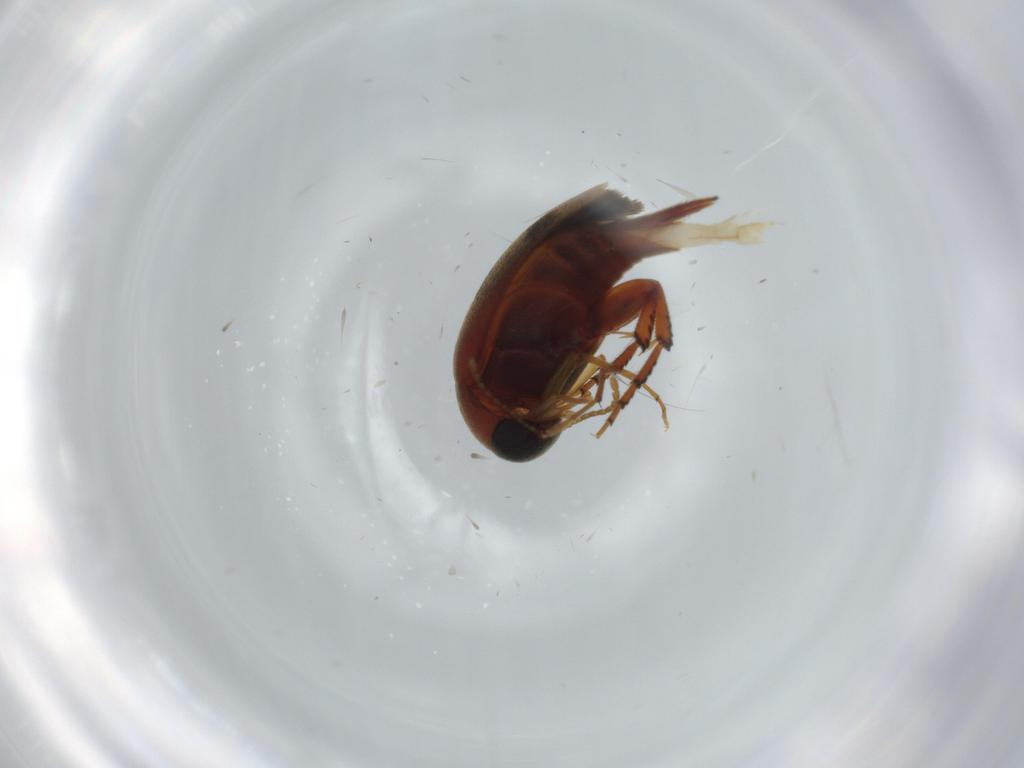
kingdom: Animalia
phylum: Arthropoda
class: Insecta
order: Coleoptera
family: Mordellidae
